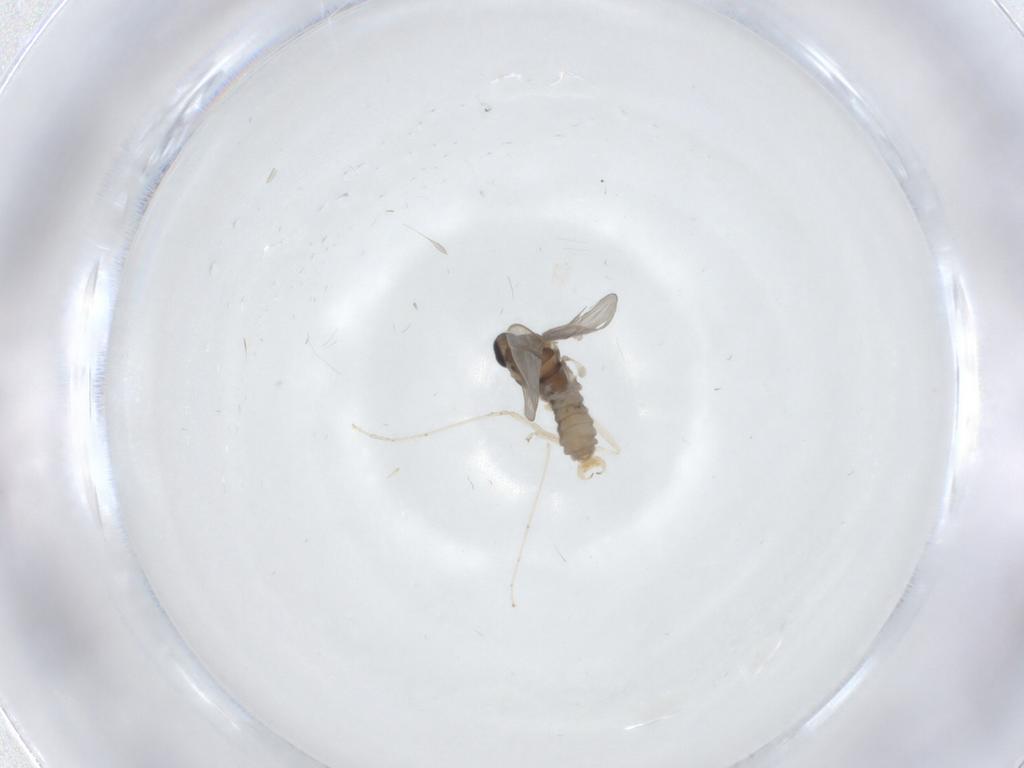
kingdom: Animalia
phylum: Arthropoda
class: Insecta
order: Diptera
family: Cecidomyiidae
